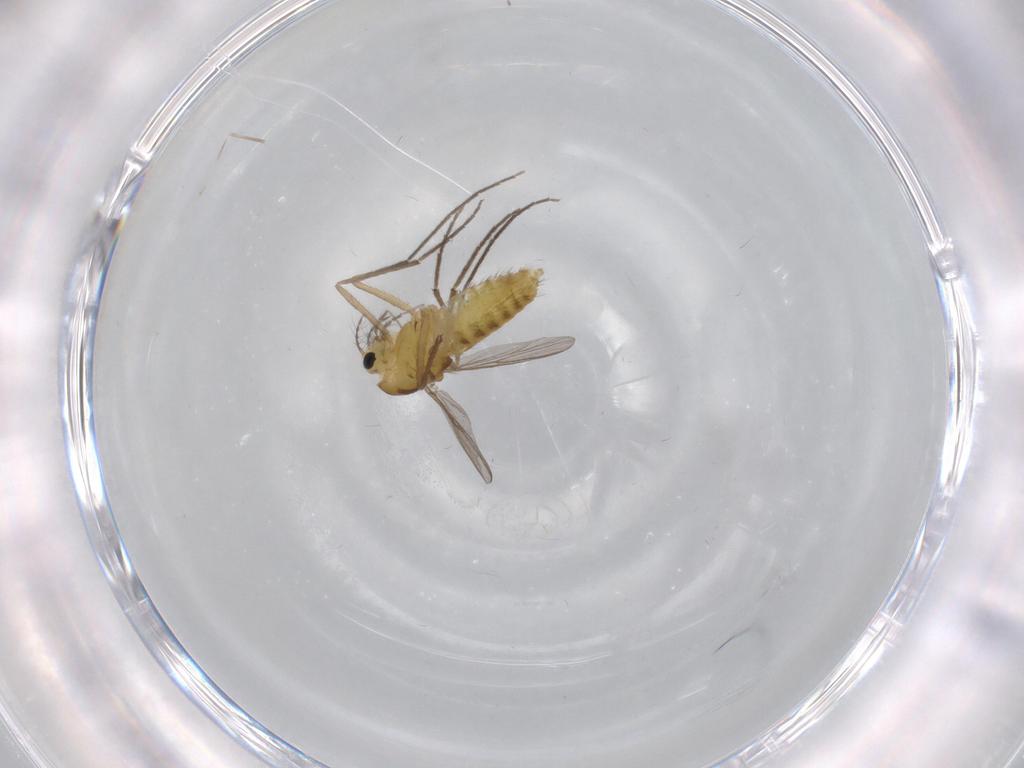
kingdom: Animalia
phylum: Arthropoda
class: Insecta
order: Diptera
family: Chironomidae
